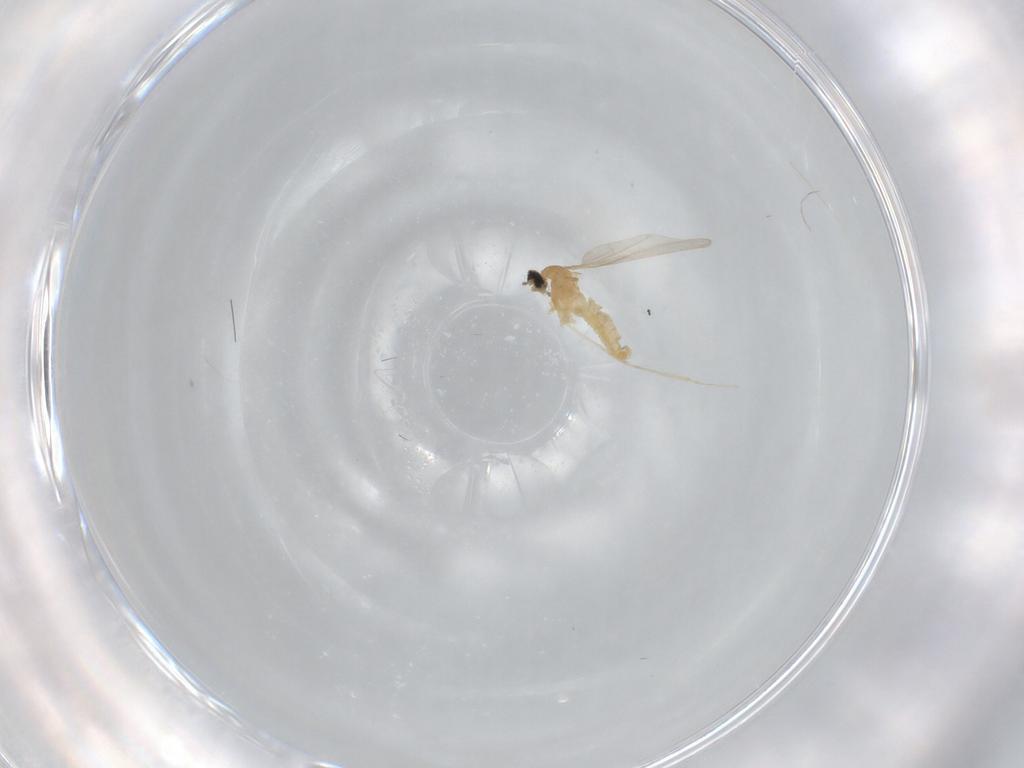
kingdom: Animalia
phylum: Arthropoda
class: Insecta
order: Diptera
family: Cecidomyiidae
